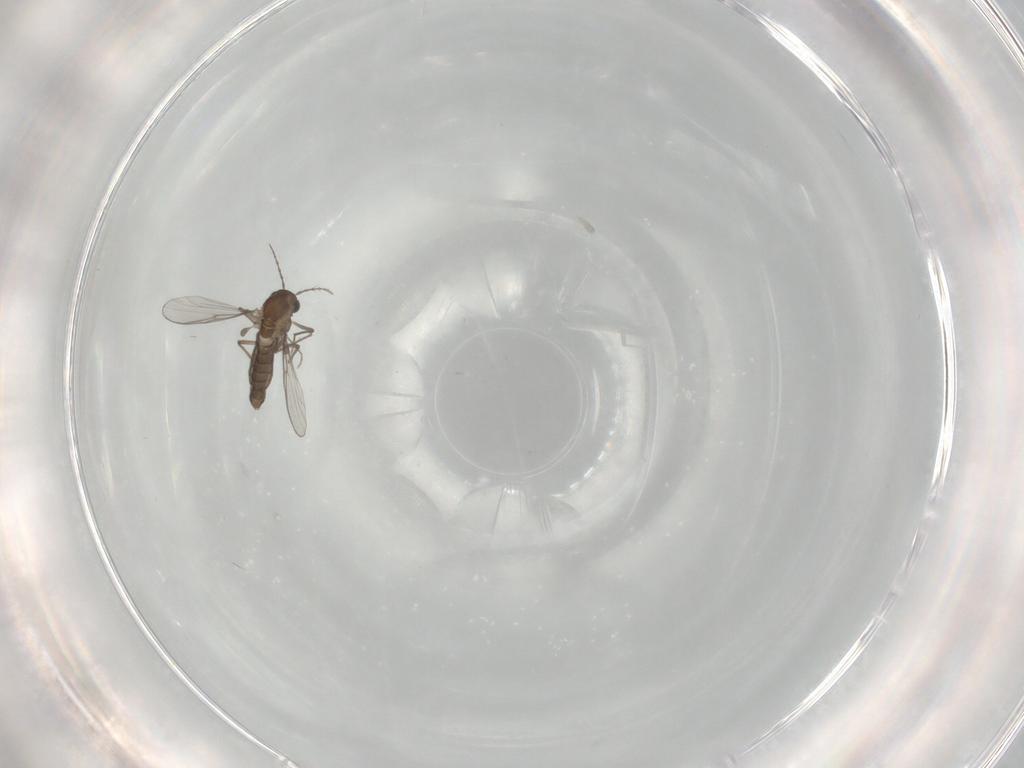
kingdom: Animalia
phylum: Arthropoda
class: Insecta
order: Diptera
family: Chironomidae
